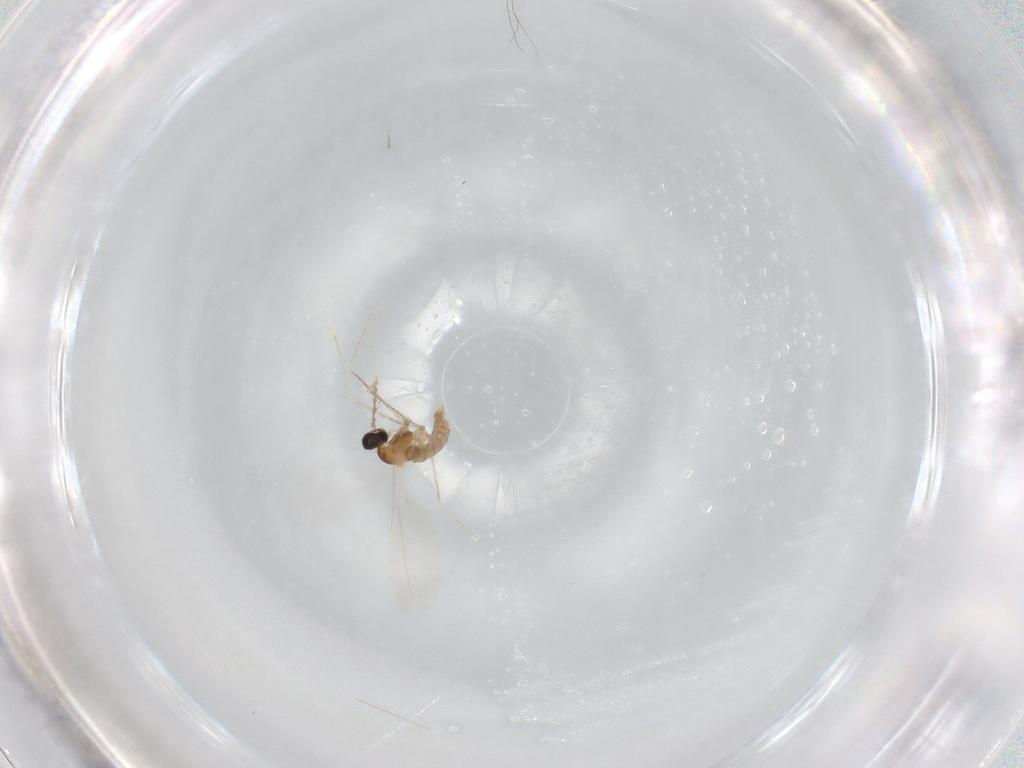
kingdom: Animalia
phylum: Arthropoda
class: Insecta
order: Diptera
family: Cecidomyiidae
